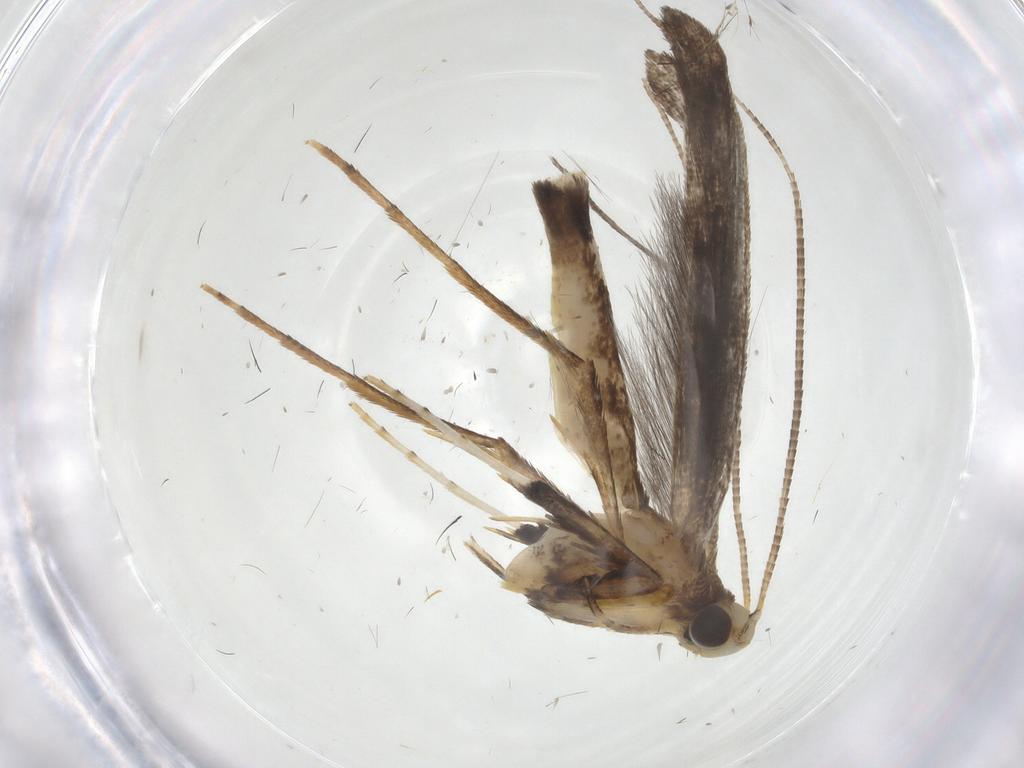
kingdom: Animalia
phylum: Arthropoda
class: Insecta
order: Lepidoptera
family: Gracillariidae
